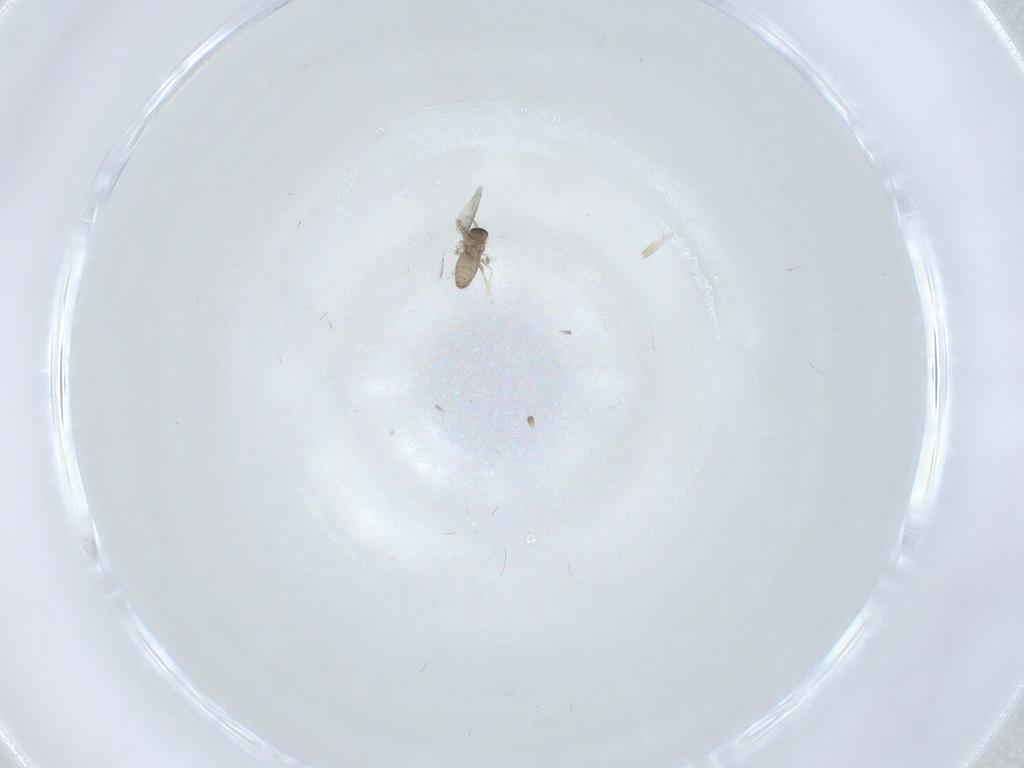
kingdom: Animalia
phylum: Arthropoda
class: Insecta
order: Diptera
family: Cecidomyiidae
